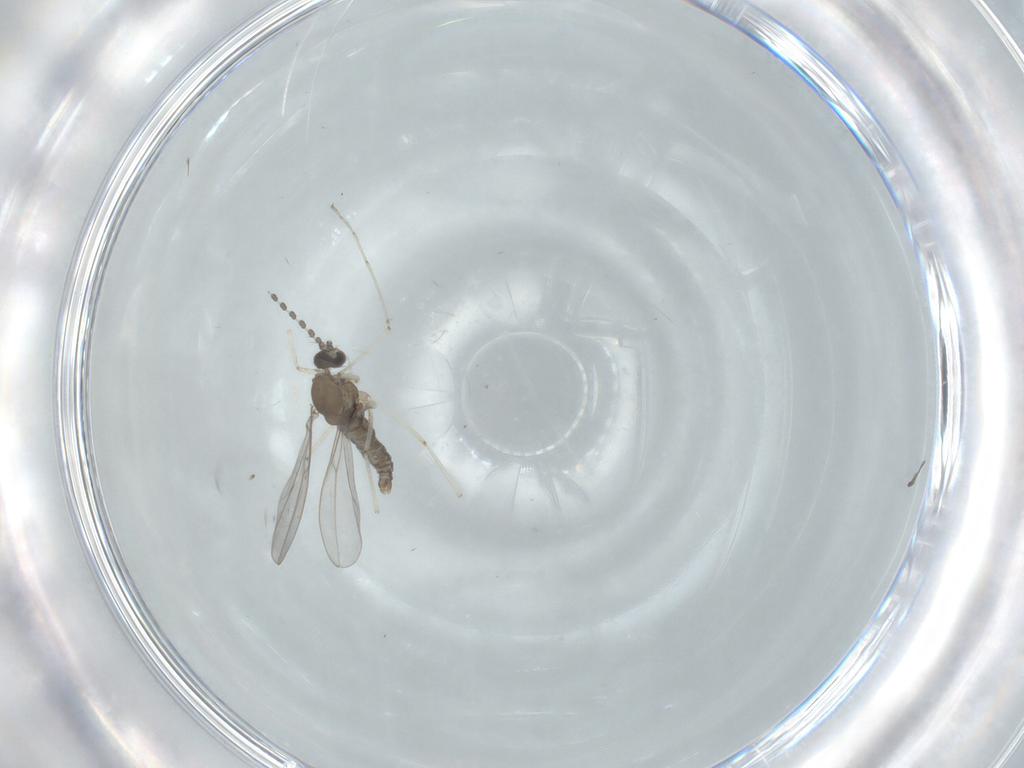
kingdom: Animalia
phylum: Arthropoda
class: Insecta
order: Diptera
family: Cecidomyiidae
